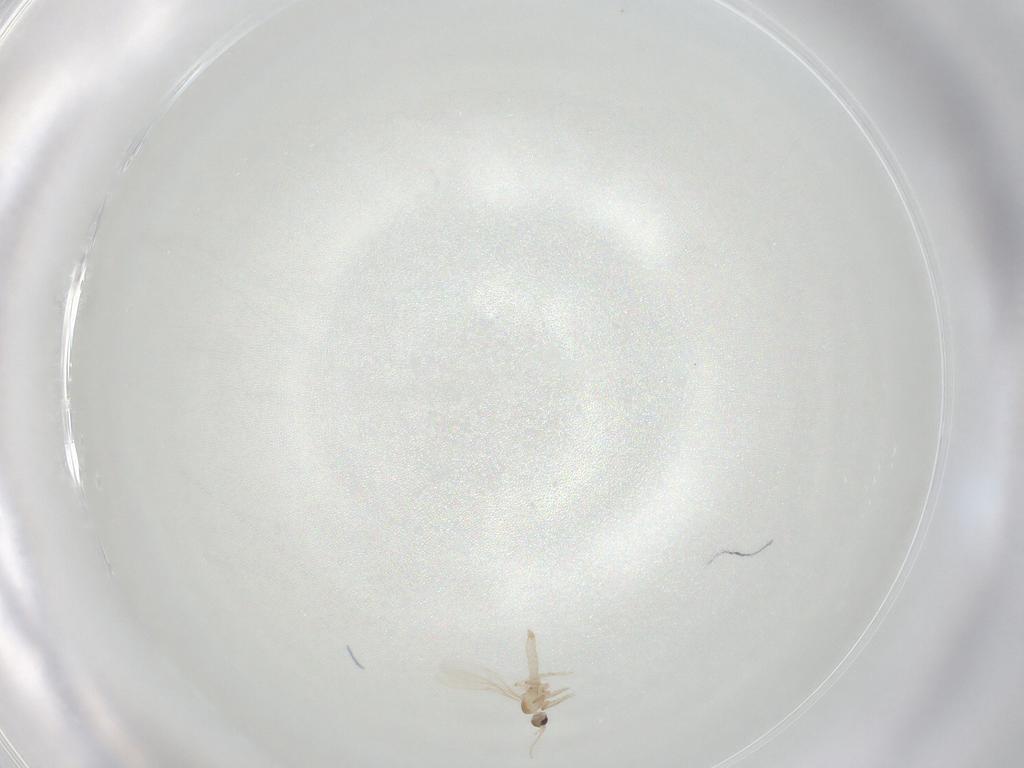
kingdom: Animalia
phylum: Arthropoda
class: Insecta
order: Diptera
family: Cecidomyiidae
